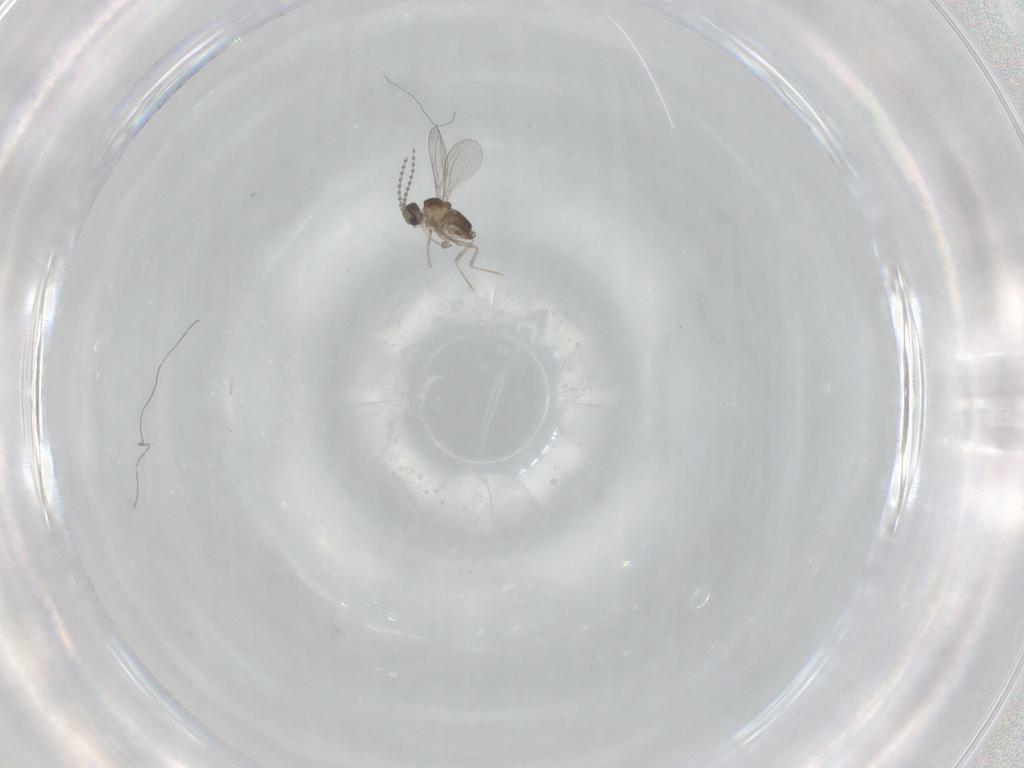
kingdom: Animalia
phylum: Arthropoda
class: Insecta
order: Diptera
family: Cecidomyiidae
